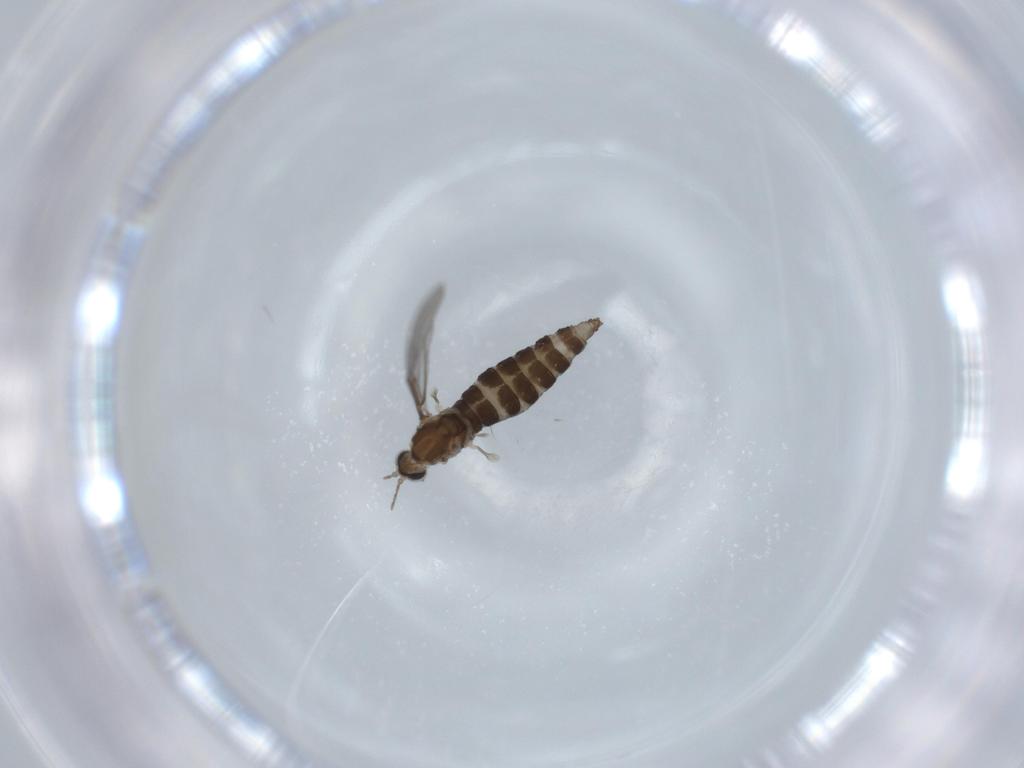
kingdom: Animalia
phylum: Arthropoda
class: Insecta
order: Diptera
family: Cecidomyiidae
